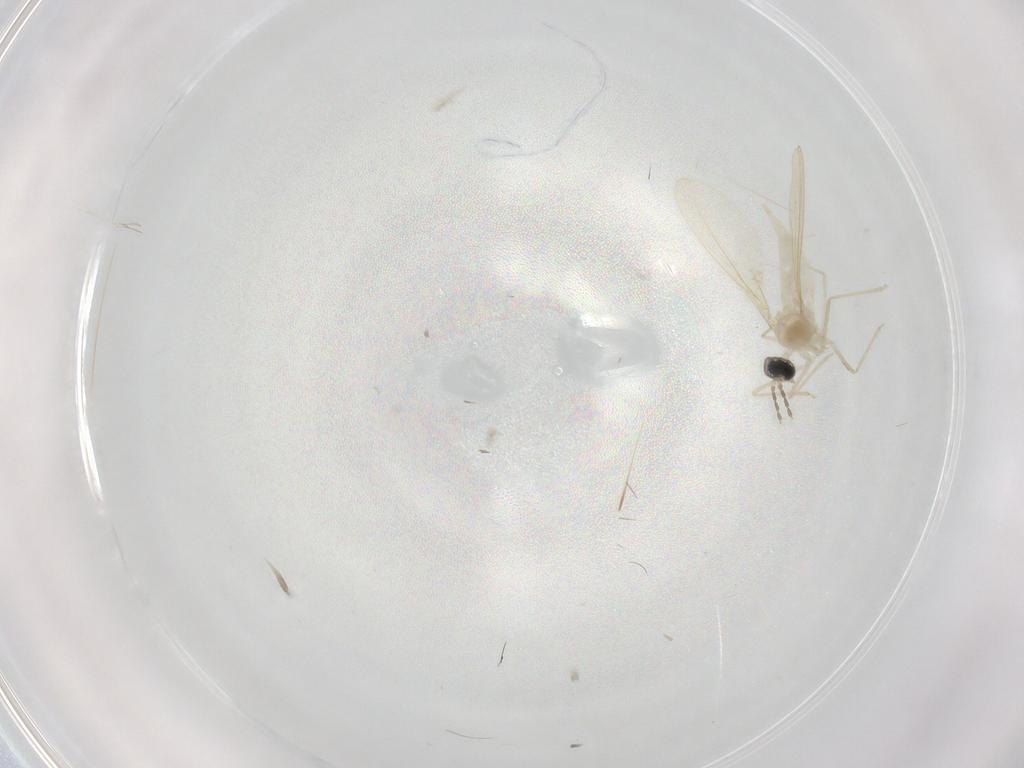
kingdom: Animalia
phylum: Arthropoda
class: Insecta
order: Diptera
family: Cecidomyiidae
